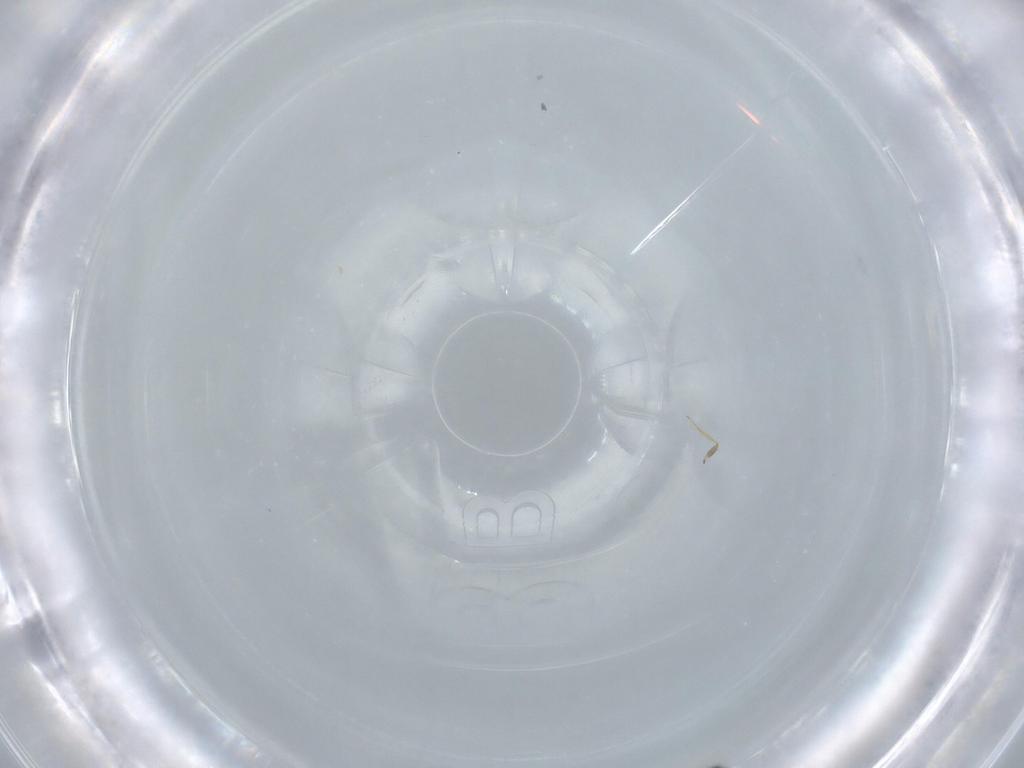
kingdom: Animalia
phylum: Arthropoda
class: Insecta
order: Hymenoptera
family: Mymaridae
